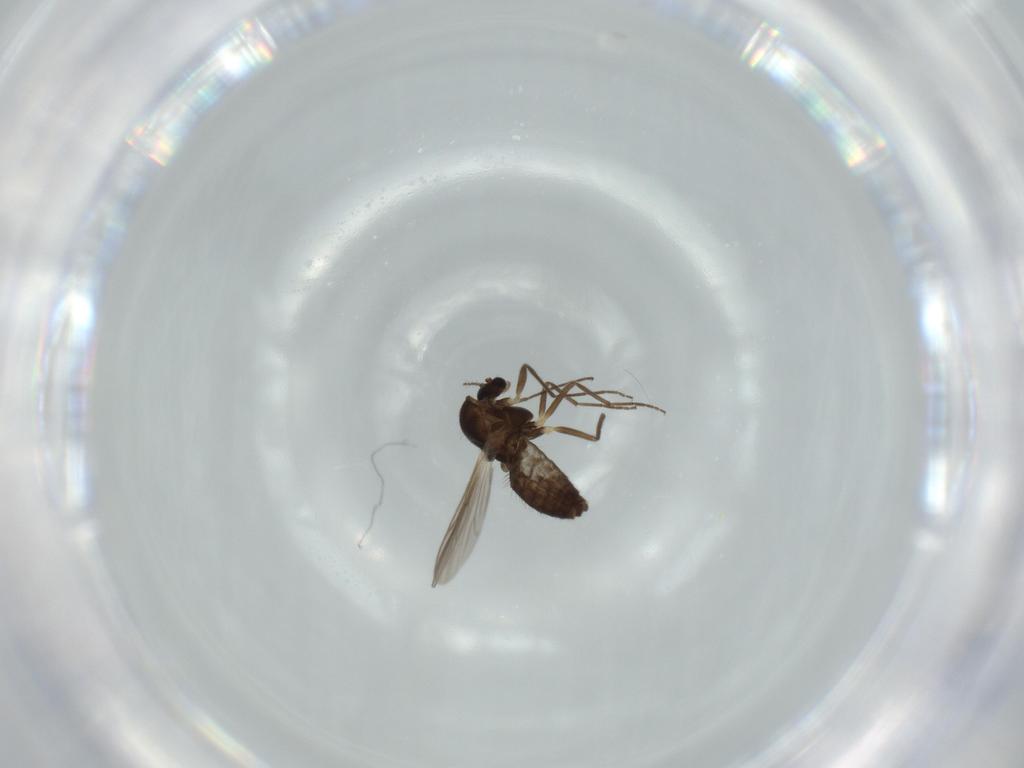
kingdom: Animalia
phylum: Arthropoda
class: Insecta
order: Diptera
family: Chironomidae
